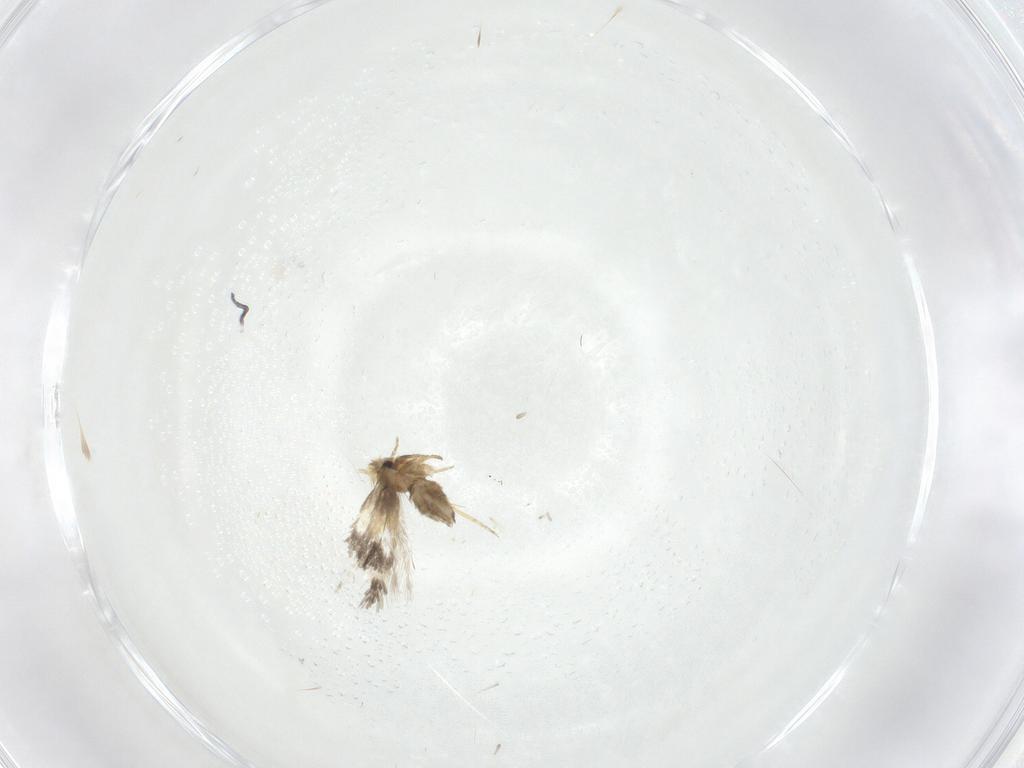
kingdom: Animalia
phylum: Arthropoda
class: Insecta
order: Lepidoptera
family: Nepticulidae
